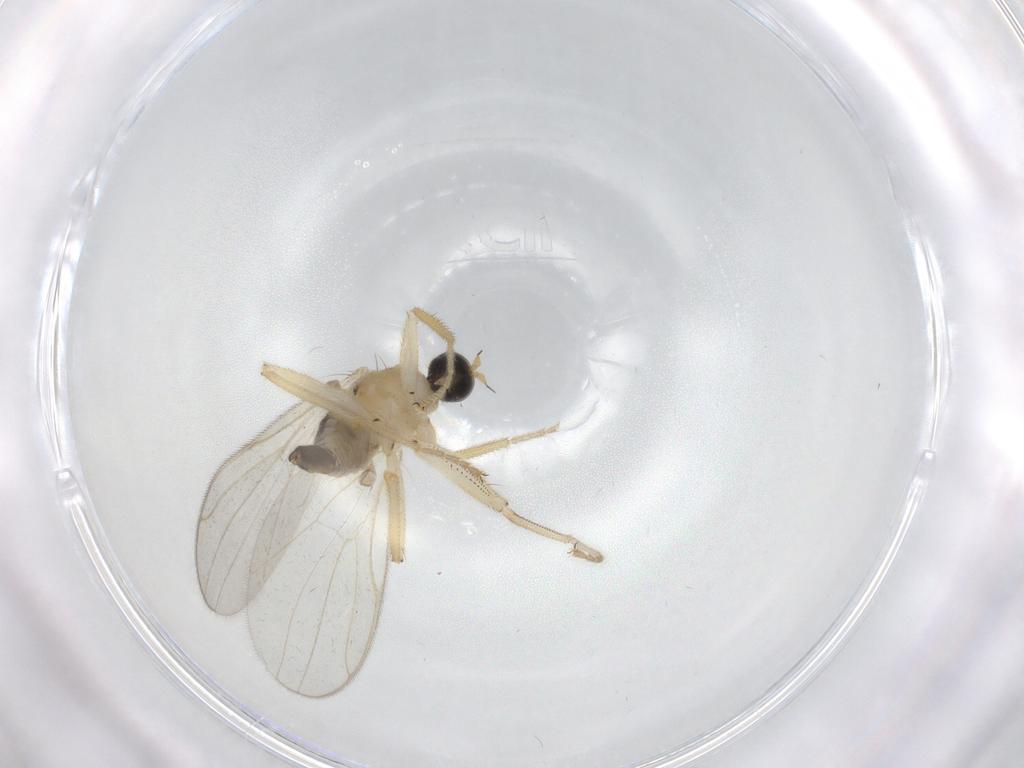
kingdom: Animalia
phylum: Arthropoda
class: Insecta
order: Diptera
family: Hybotidae
